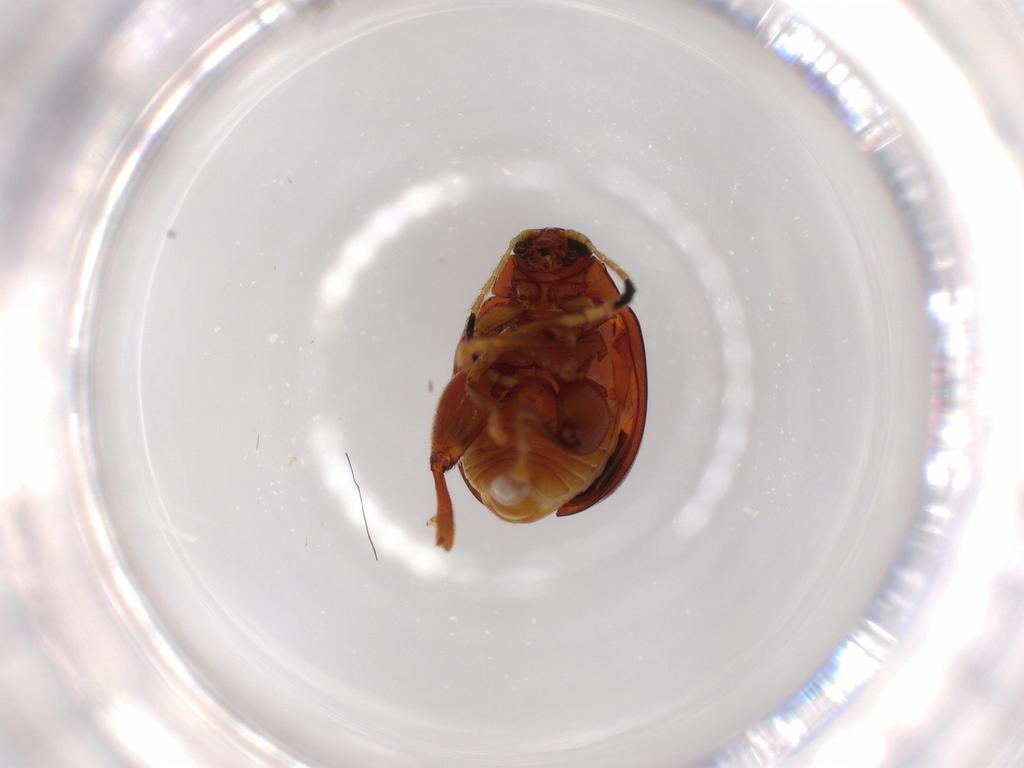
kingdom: Animalia
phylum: Arthropoda
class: Insecta
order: Coleoptera
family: Chrysomelidae
